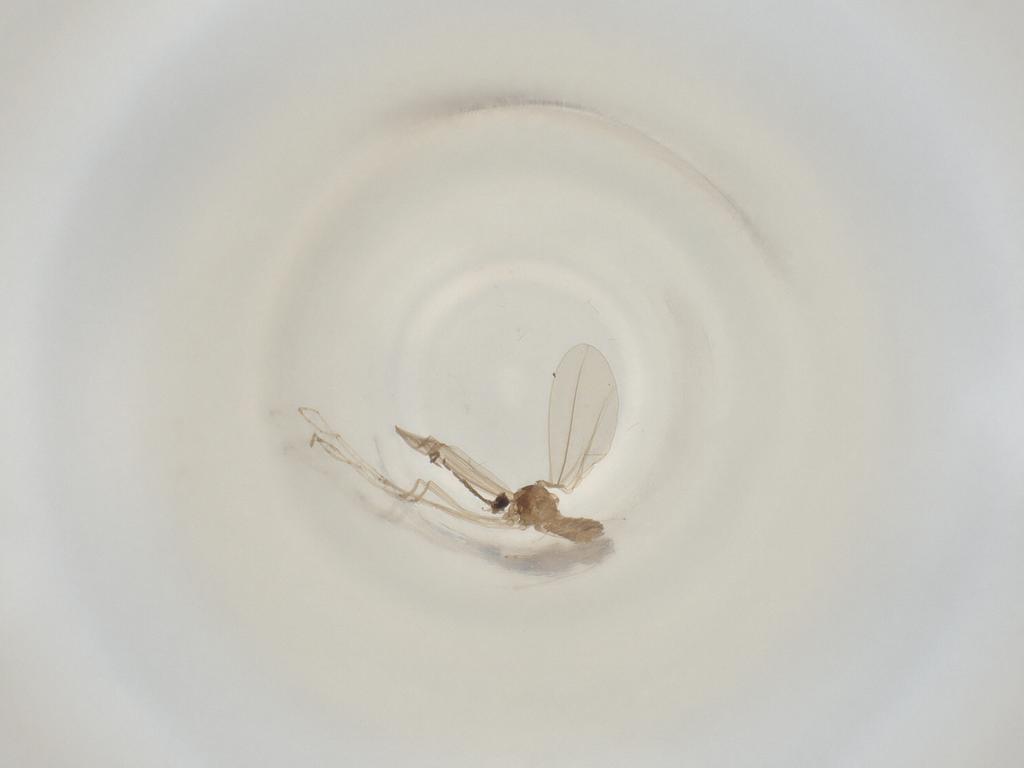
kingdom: Animalia
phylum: Arthropoda
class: Insecta
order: Diptera
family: Cecidomyiidae
